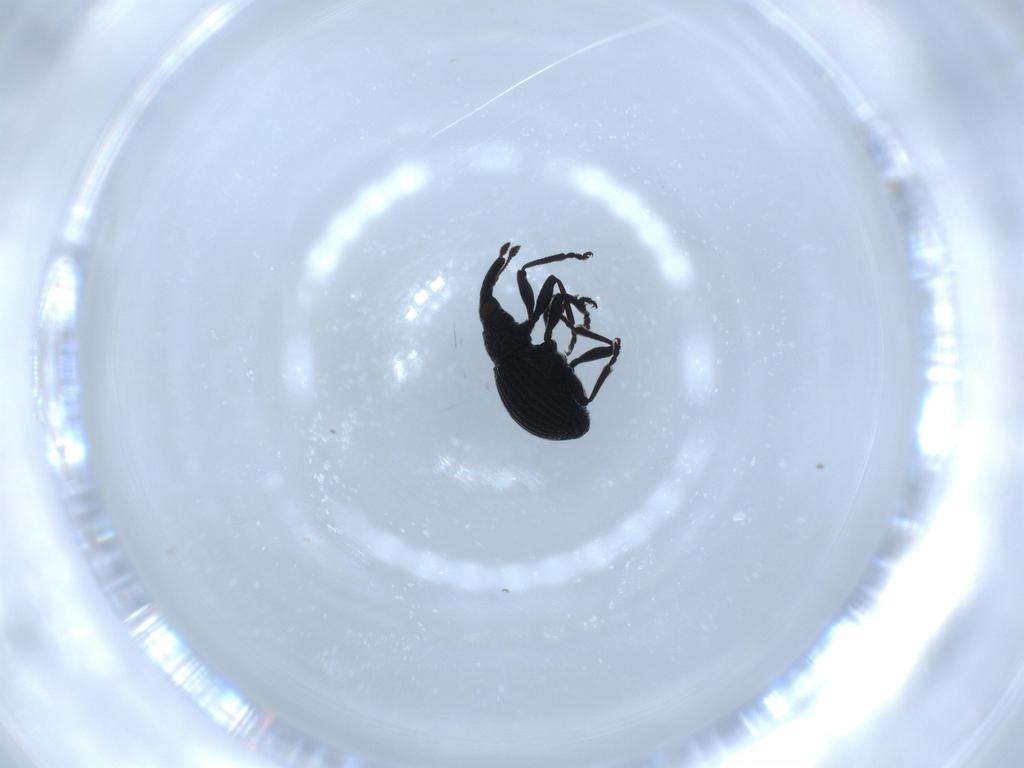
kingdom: Animalia
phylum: Arthropoda
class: Insecta
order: Coleoptera
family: Brentidae
